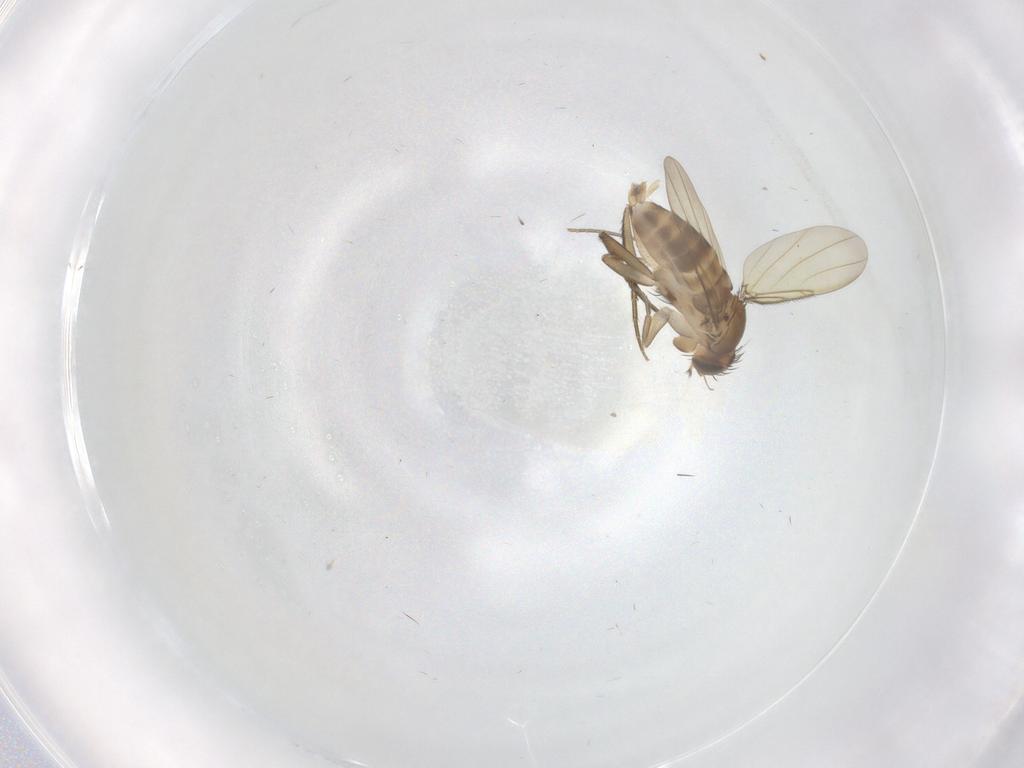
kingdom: Animalia
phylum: Arthropoda
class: Insecta
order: Diptera
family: Phoridae
